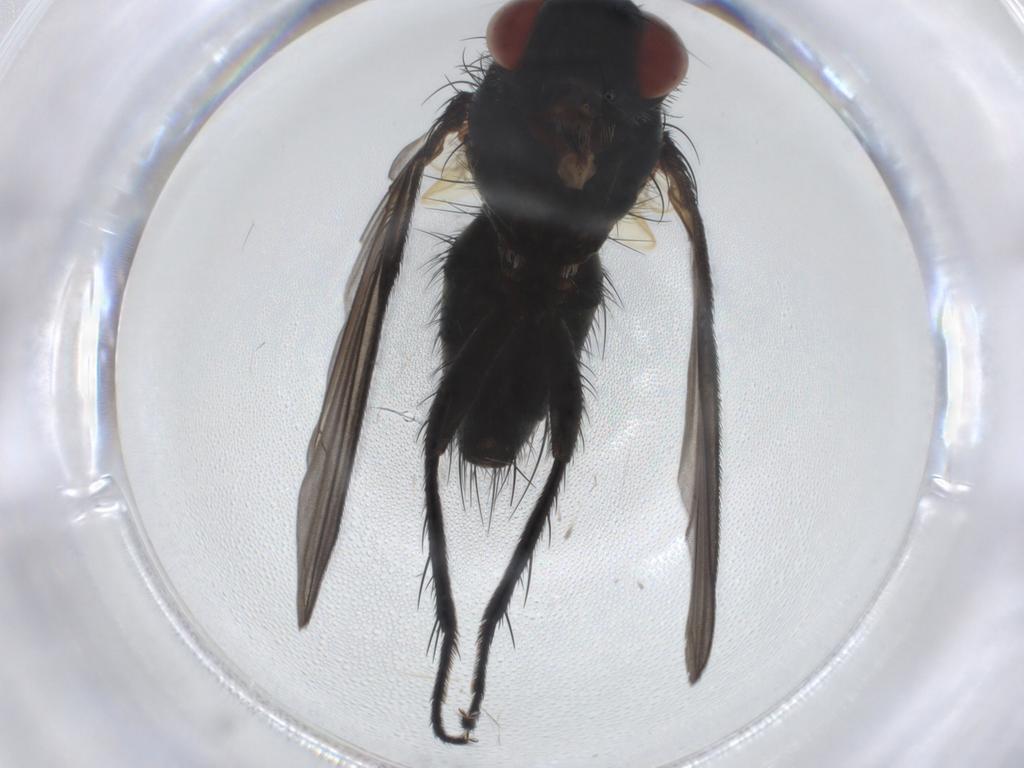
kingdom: Animalia
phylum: Arthropoda
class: Insecta
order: Diptera
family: Tachinidae
